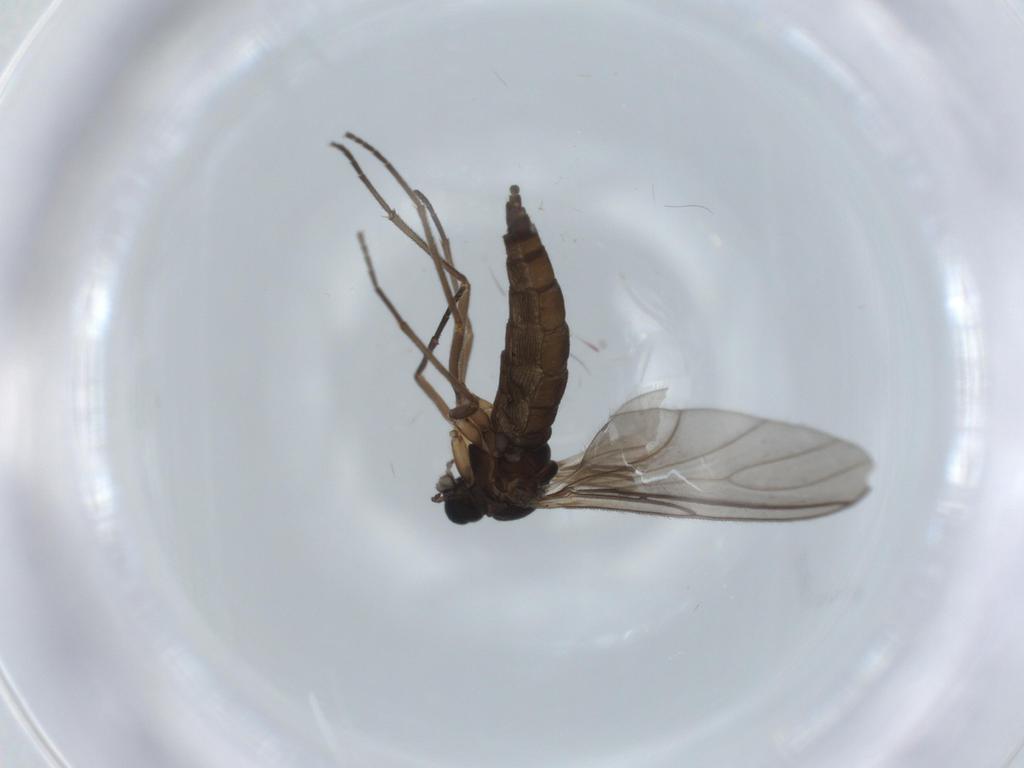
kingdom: Animalia
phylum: Arthropoda
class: Insecta
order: Diptera
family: Sciaridae
